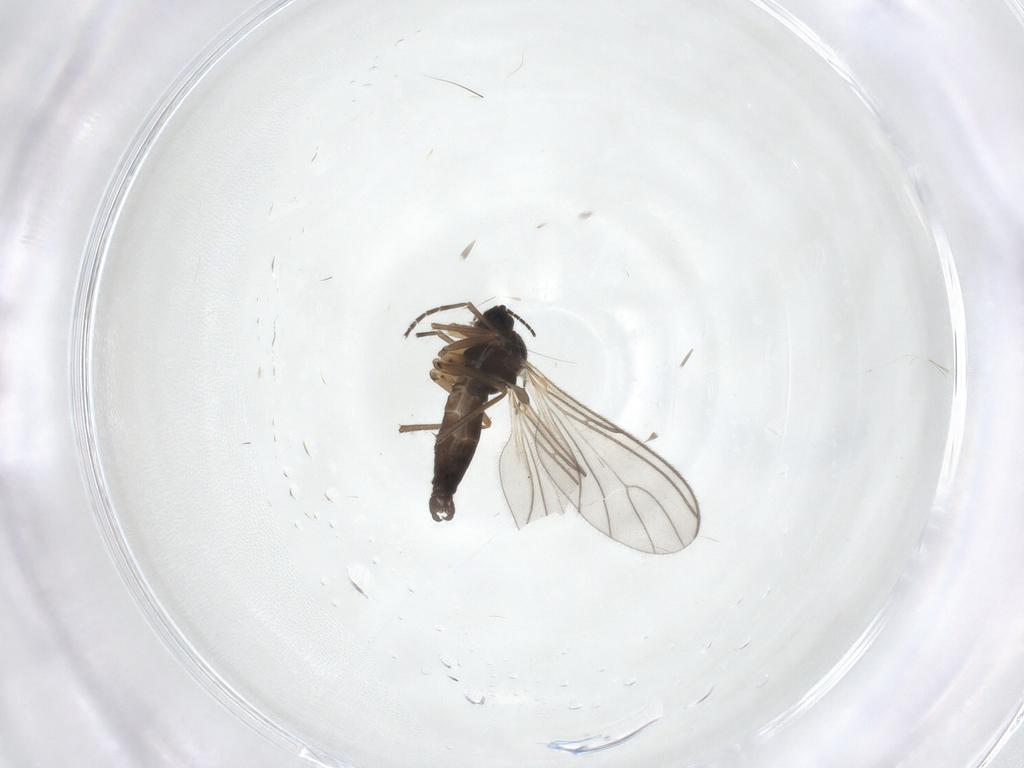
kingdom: Animalia
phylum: Arthropoda
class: Insecta
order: Diptera
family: Sciaridae
